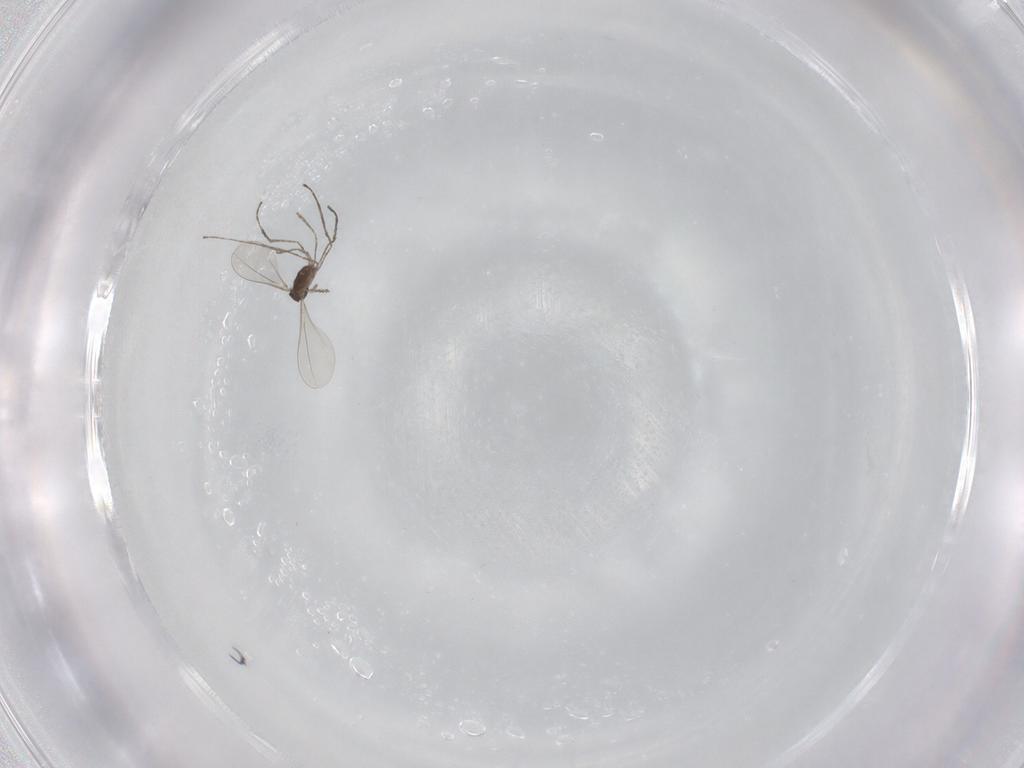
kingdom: Animalia
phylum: Arthropoda
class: Insecta
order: Diptera
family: Cecidomyiidae
